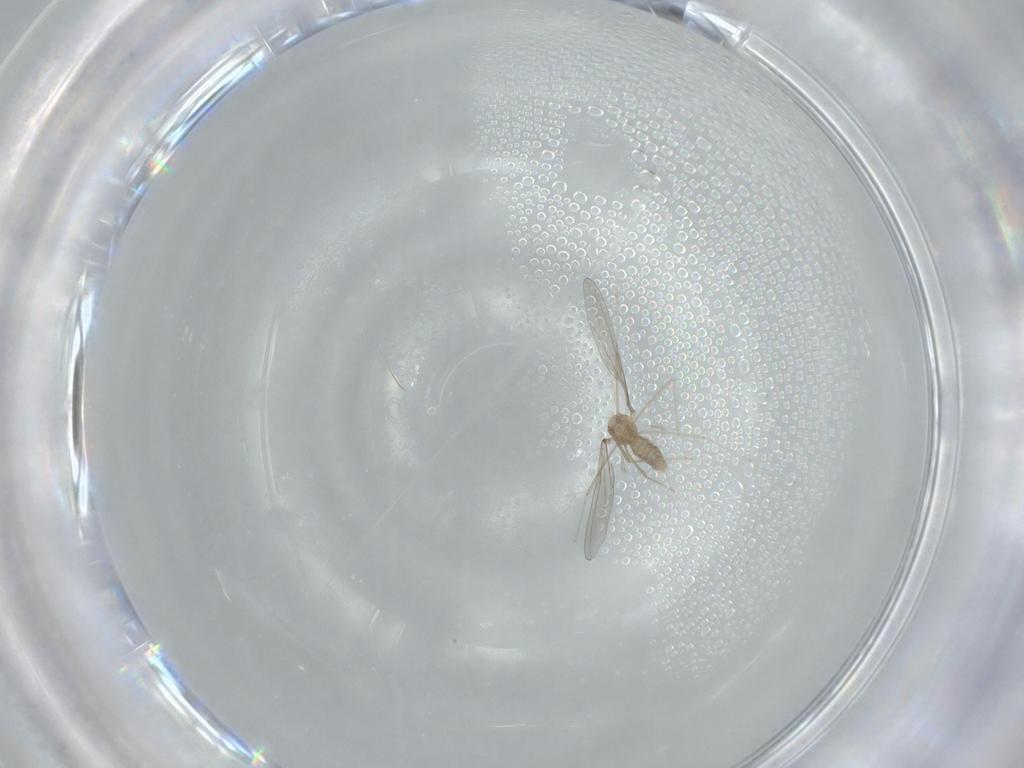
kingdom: Animalia
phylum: Arthropoda
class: Insecta
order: Diptera
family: Cecidomyiidae
